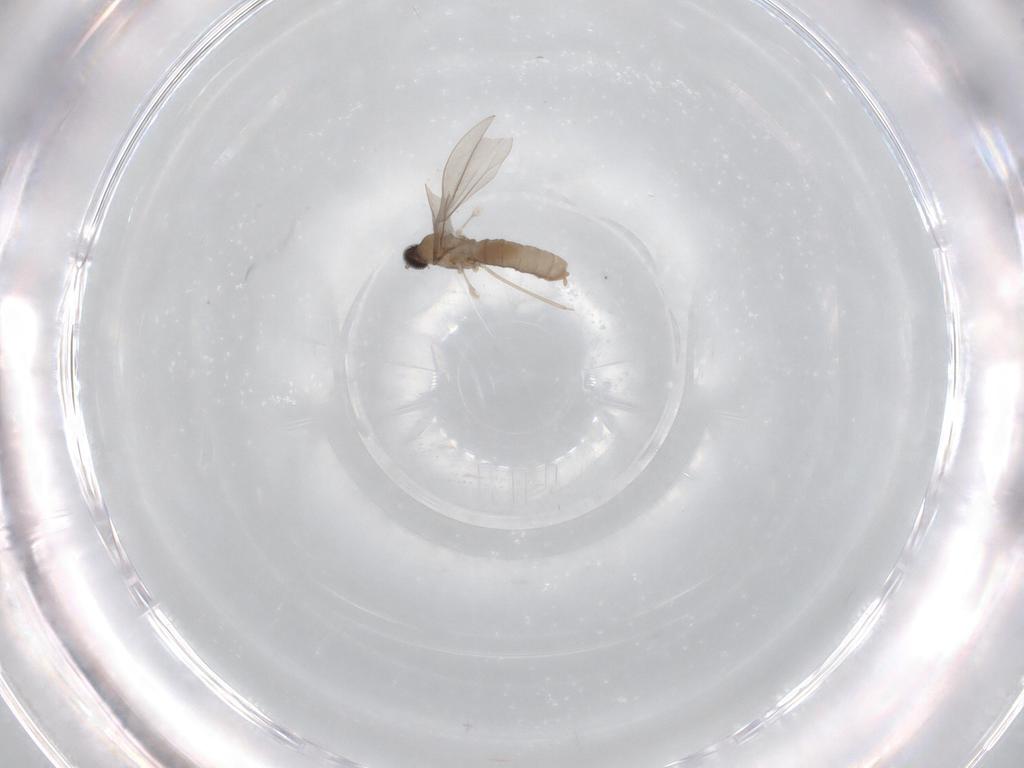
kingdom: Animalia
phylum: Arthropoda
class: Insecta
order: Diptera
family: Cecidomyiidae
